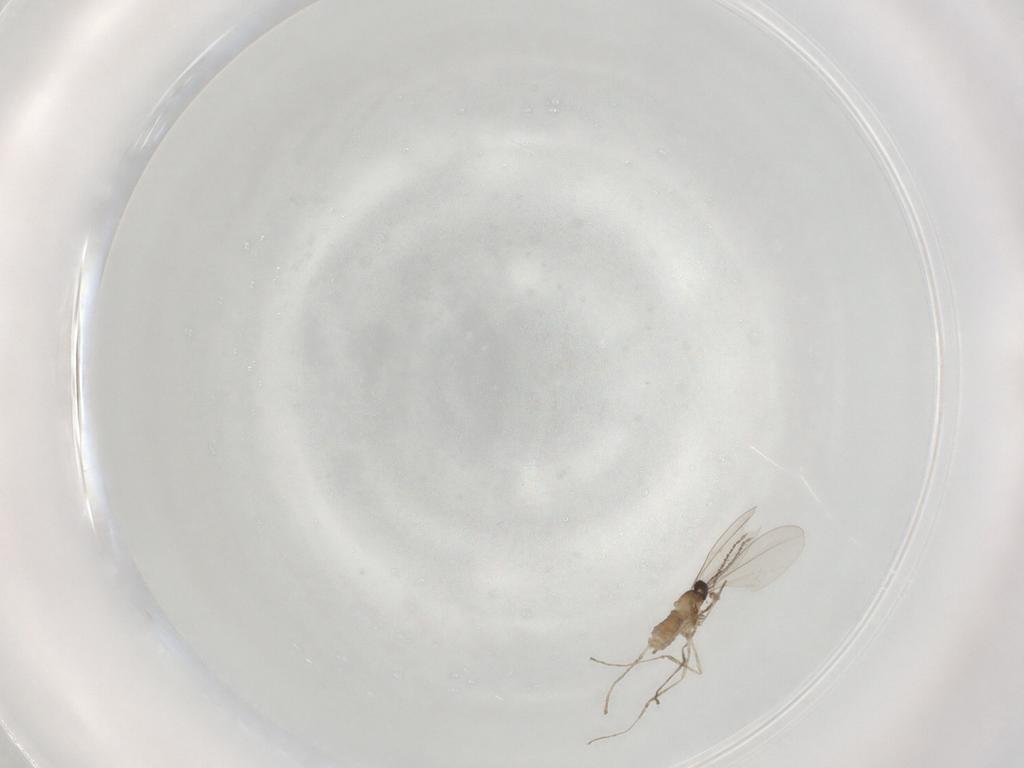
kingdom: Animalia
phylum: Arthropoda
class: Insecta
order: Diptera
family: Cecidomyiidae
